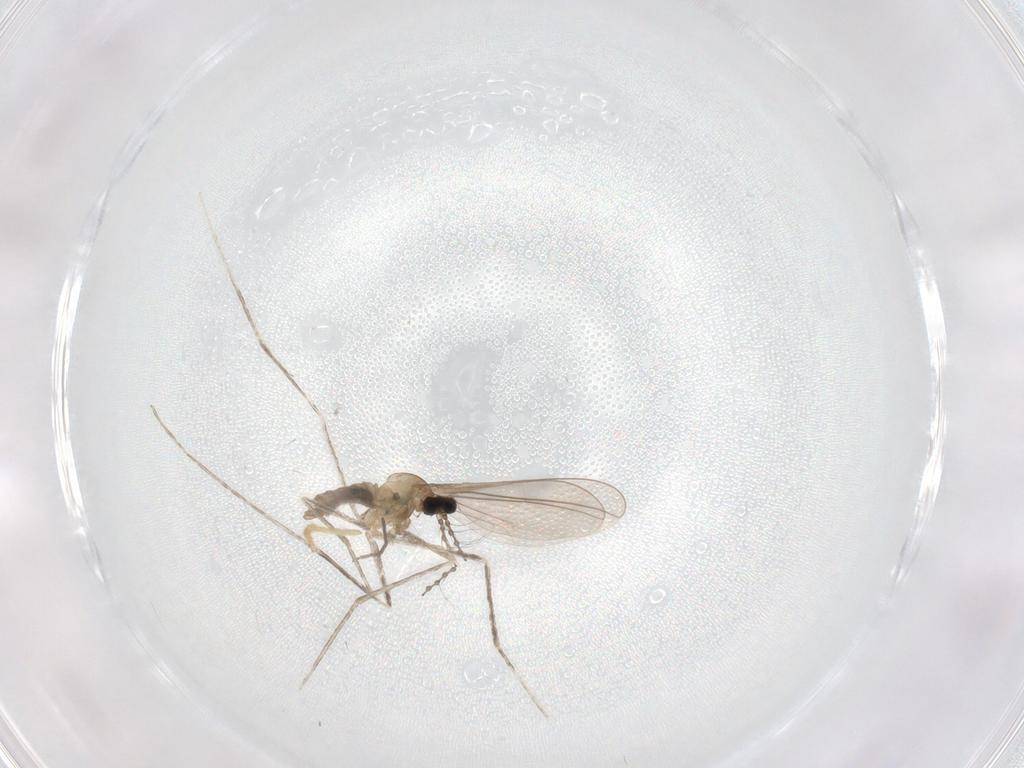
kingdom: Animalia
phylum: Arthropoda
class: Insecta
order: Diptera
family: Chironomidae
